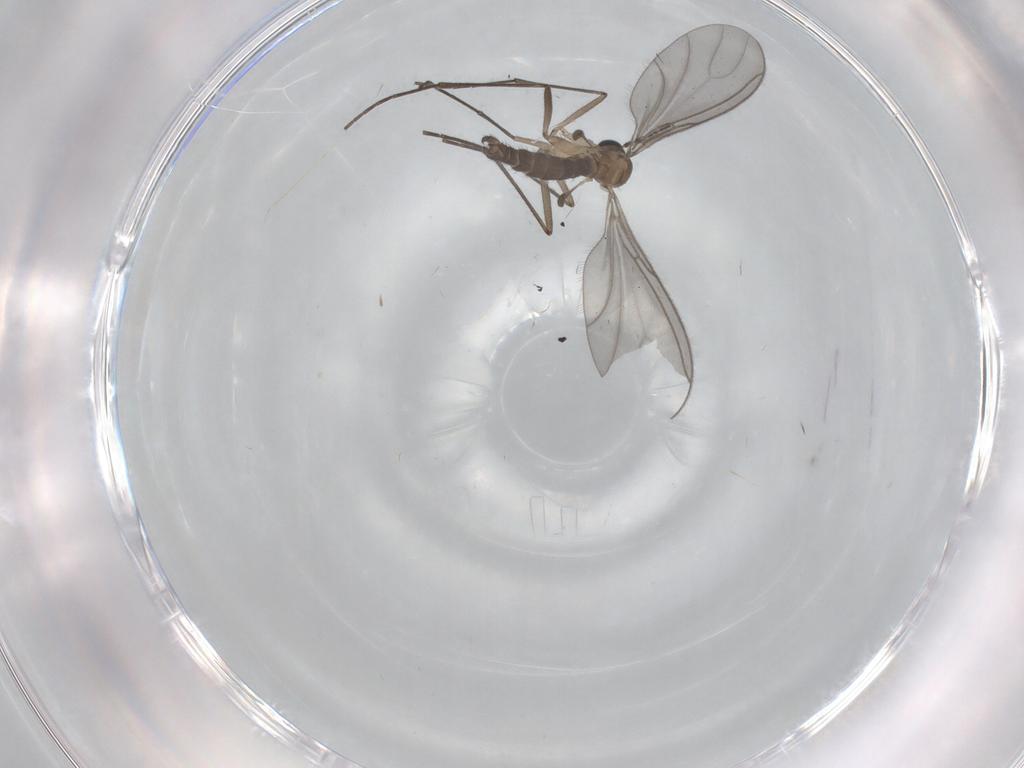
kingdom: Animalia
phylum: Arthropoda
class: Insecta
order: Diptera
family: Sciaridae
